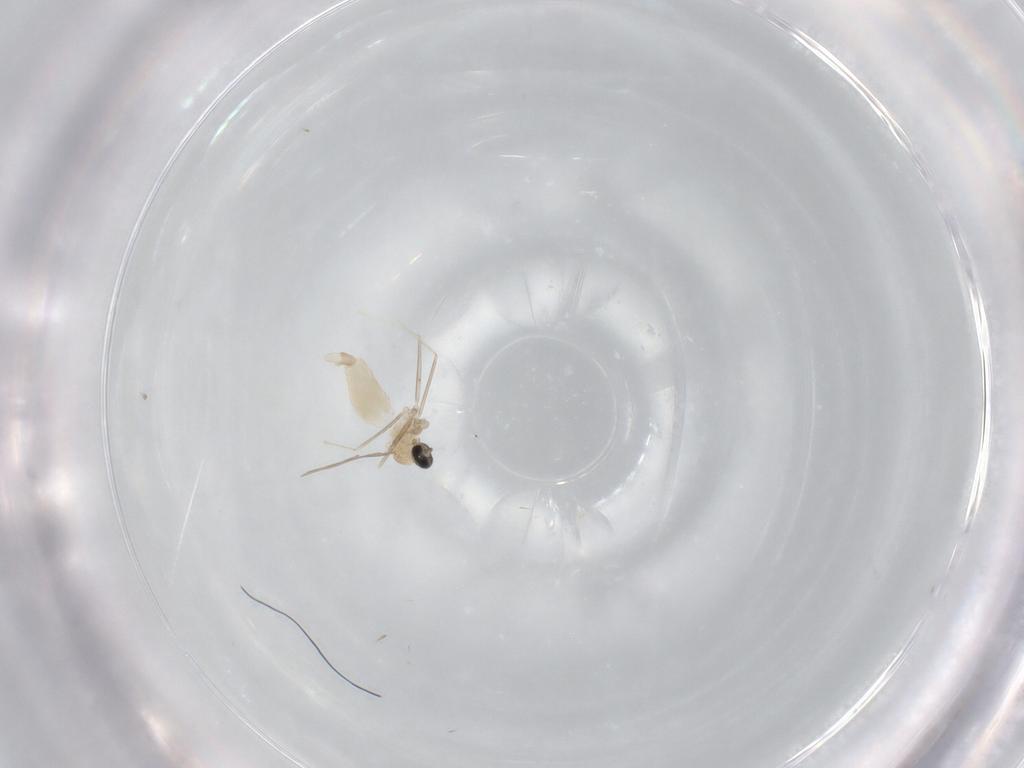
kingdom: Animalia
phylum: Arthropoda
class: Insecta
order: Diptera
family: Cecidomyiidae
